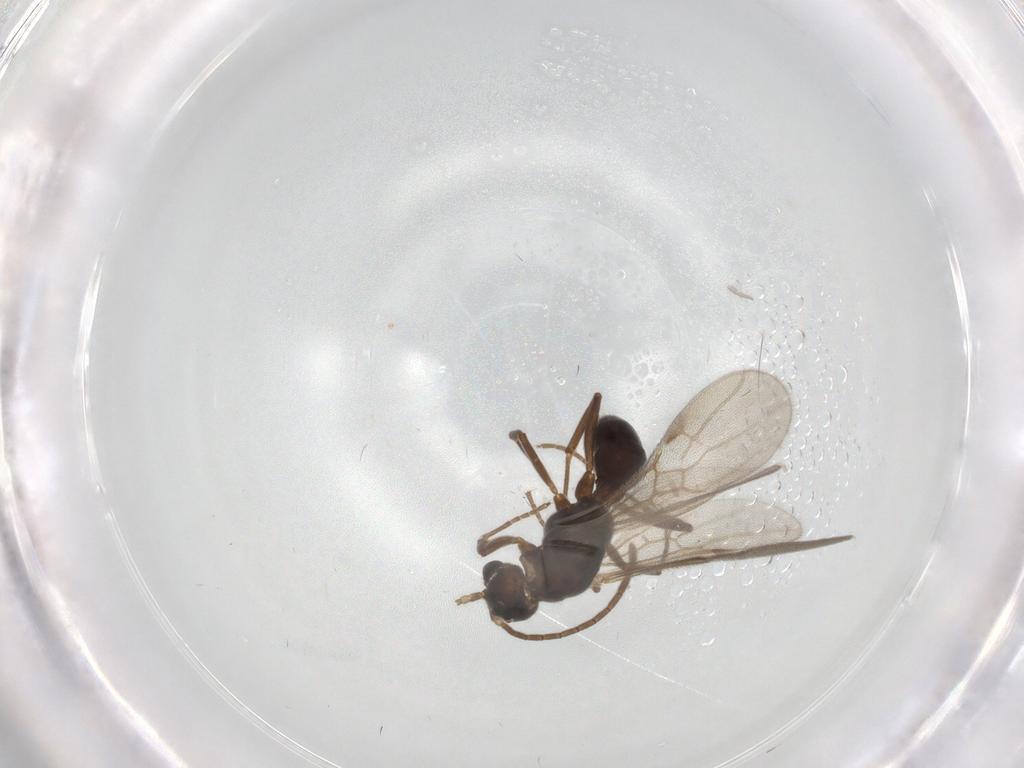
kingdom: Animalia
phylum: Arthropoda
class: Insecta
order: Hymenoptera
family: Formicidae
